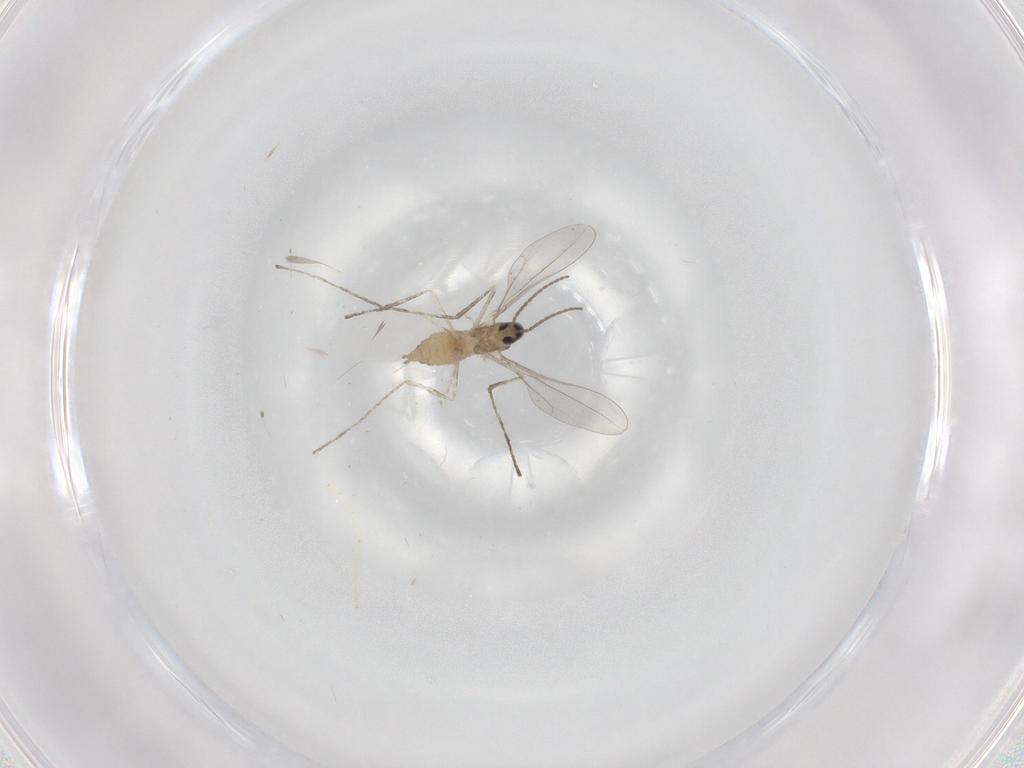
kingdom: Animalia
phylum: Arthropoda
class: Insecta
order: Diptera
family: Cecidomyiidae
